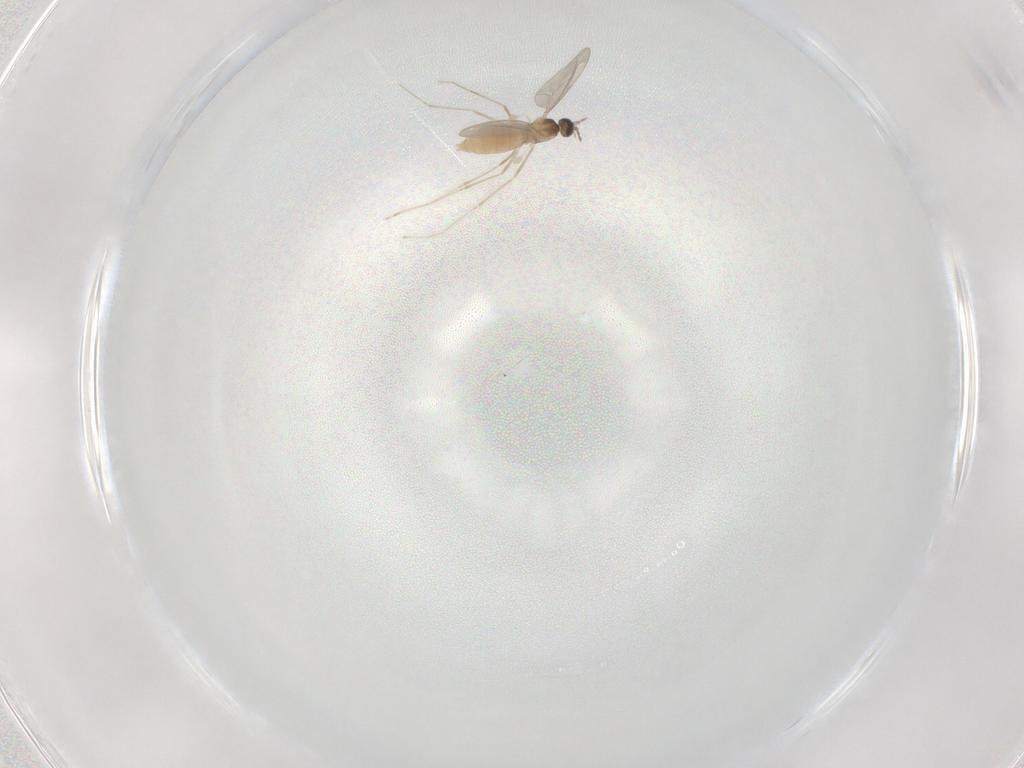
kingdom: Animalia
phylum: Arthropoda
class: Insecta
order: Diptera
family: Cecidomyiidae
